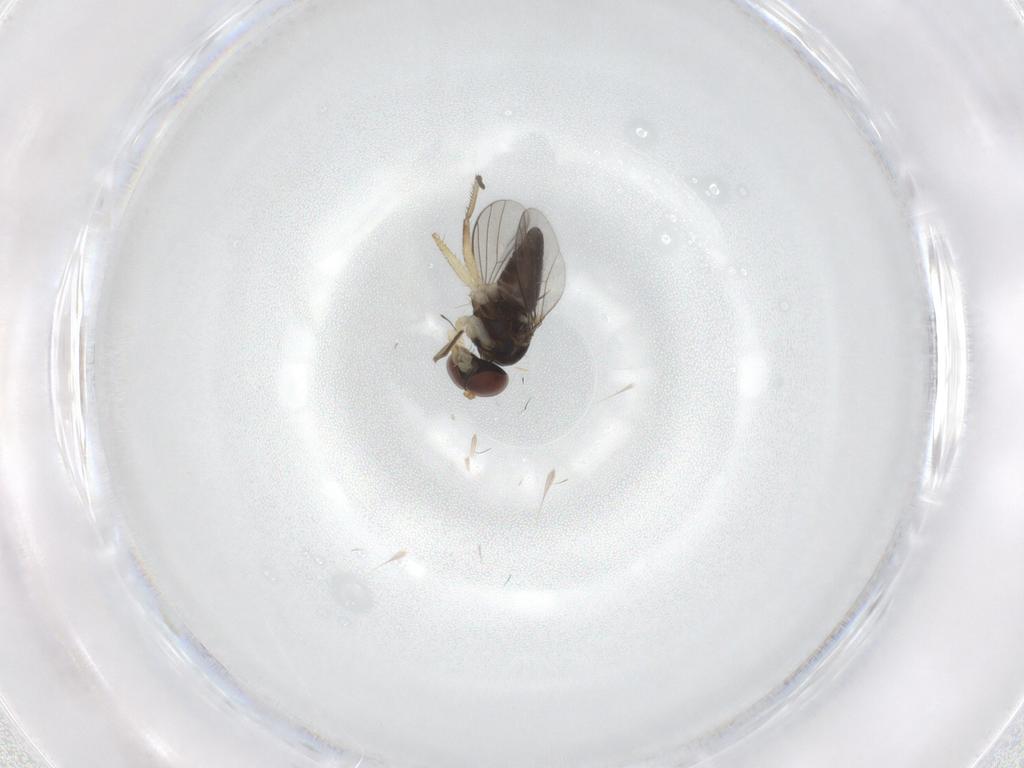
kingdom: Animalia
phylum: Arthropoda
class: Insecta
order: Diptera
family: Dolichopodidae
